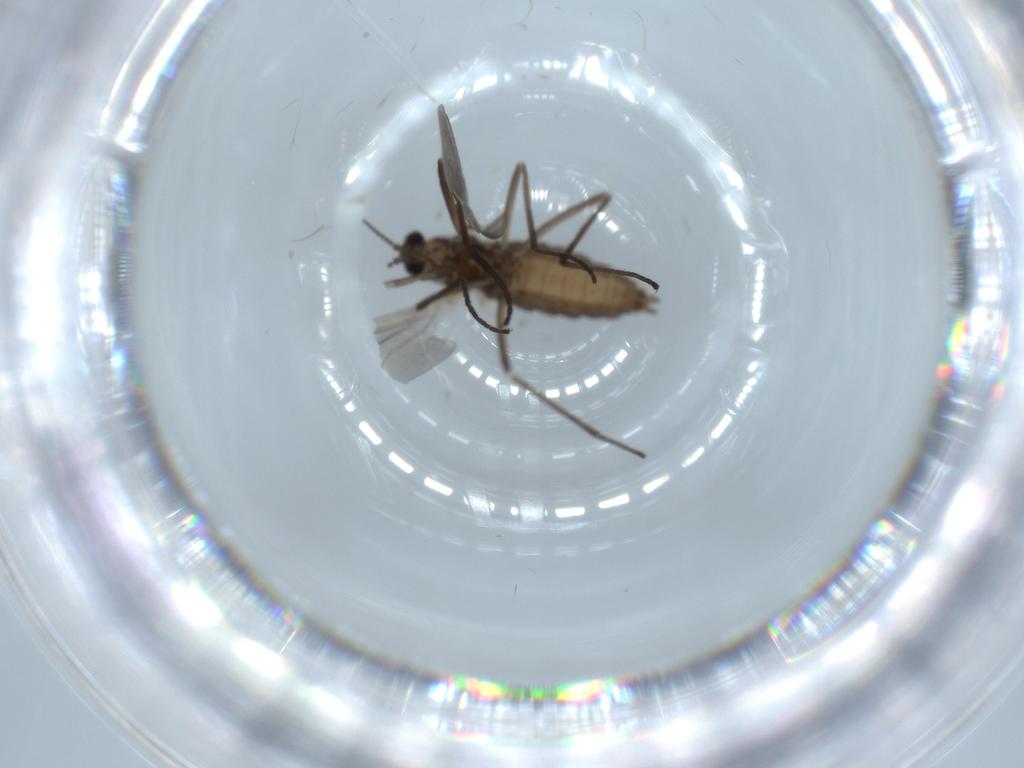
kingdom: Animalia
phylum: Arthropoda
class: Insecta
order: Diptera
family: Cecidomyiidae
